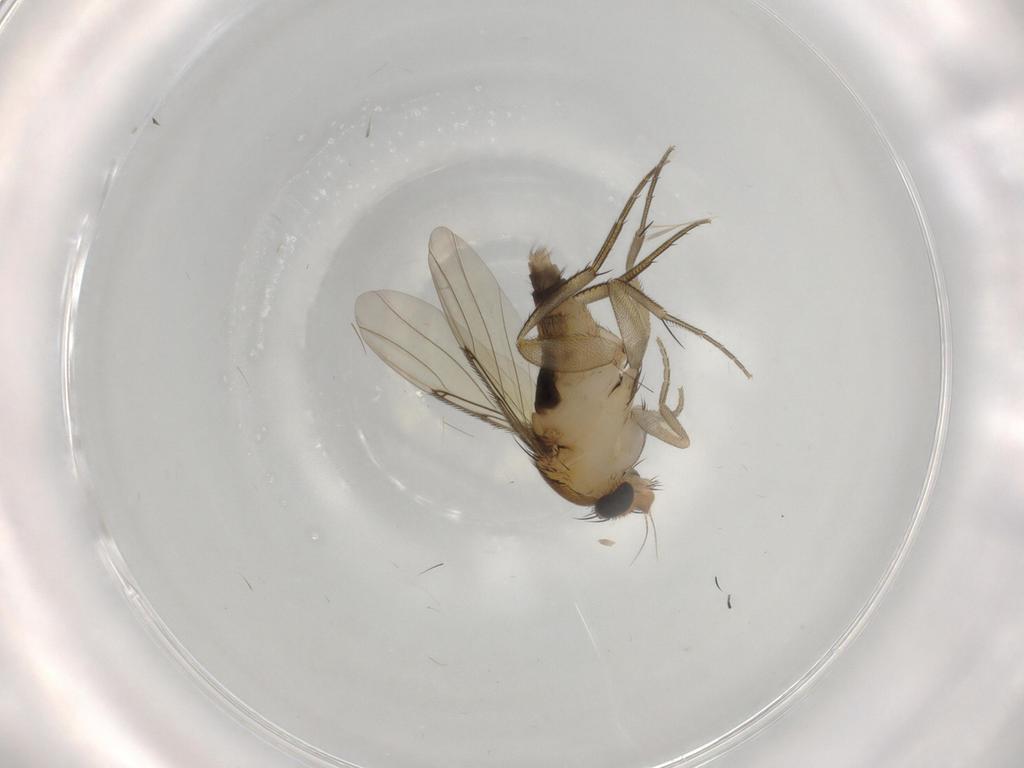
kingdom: Animalia
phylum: Arthropoda
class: Insecta
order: Diptera
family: Phoridae
